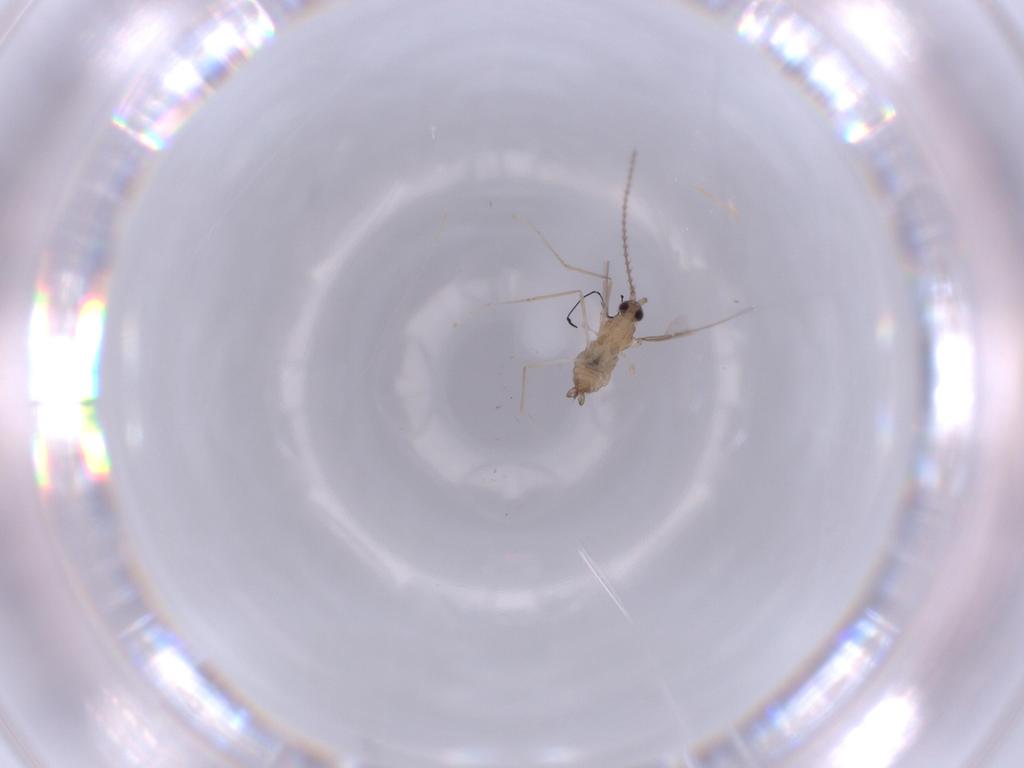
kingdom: Animalia
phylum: Arthropoda
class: Insecta
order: Diptera
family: Cecidomyiidae
